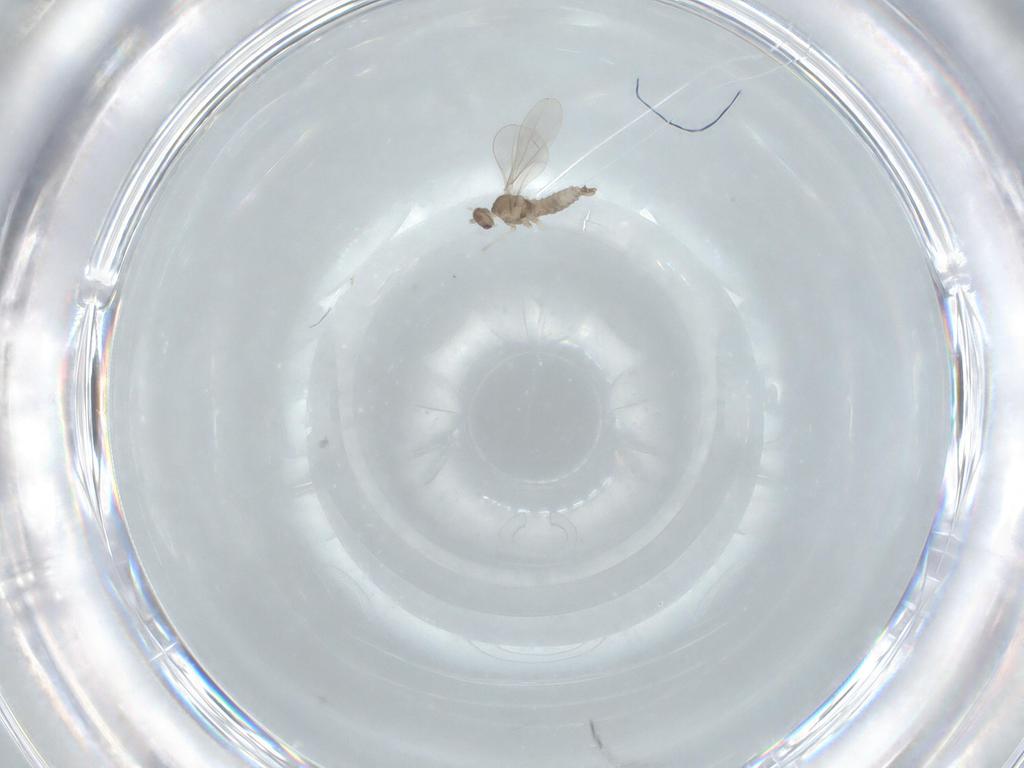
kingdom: Animalia
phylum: Arthropoda
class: Insecta
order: Diptera
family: Cecidomyiidae
